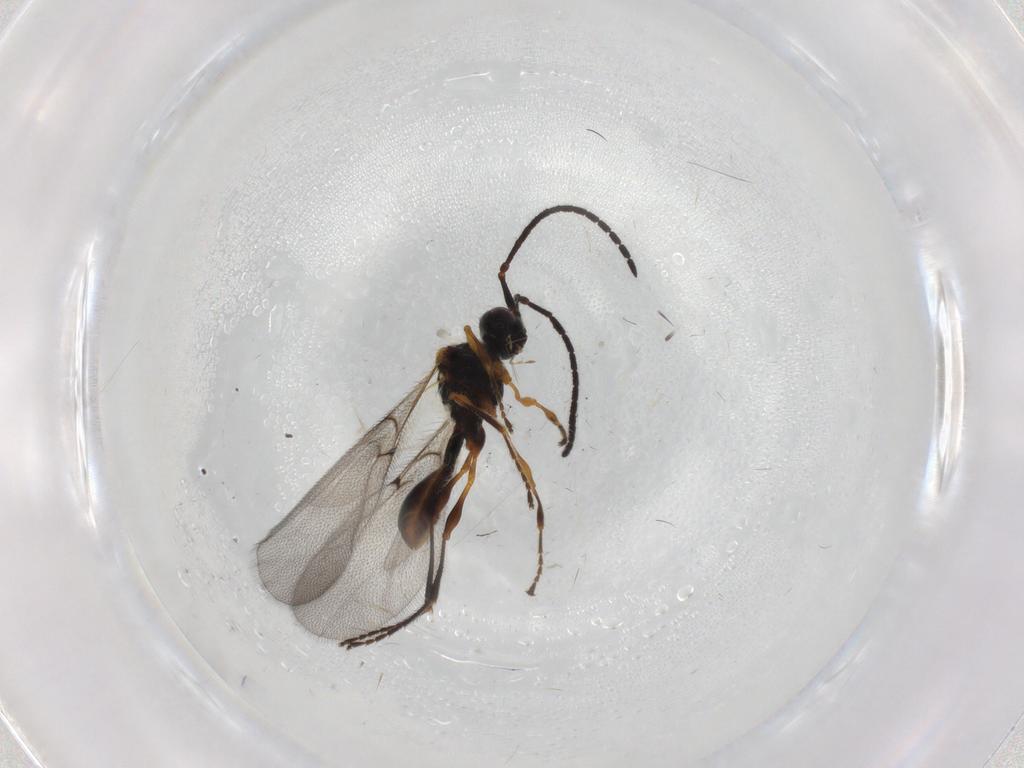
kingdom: Animalia
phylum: Arthropoda
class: Insecta
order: Hymenoptera
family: Diapriidae
